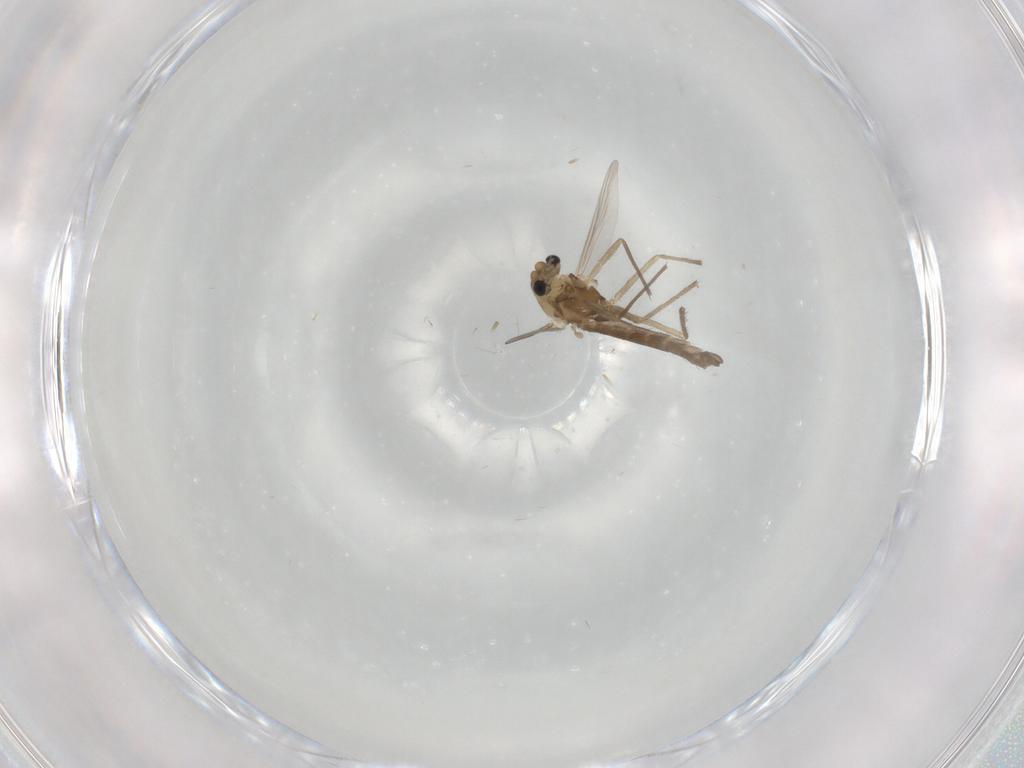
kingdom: Animalia
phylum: Arthropoda
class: Insecta
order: Diptera
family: Chironomidae
